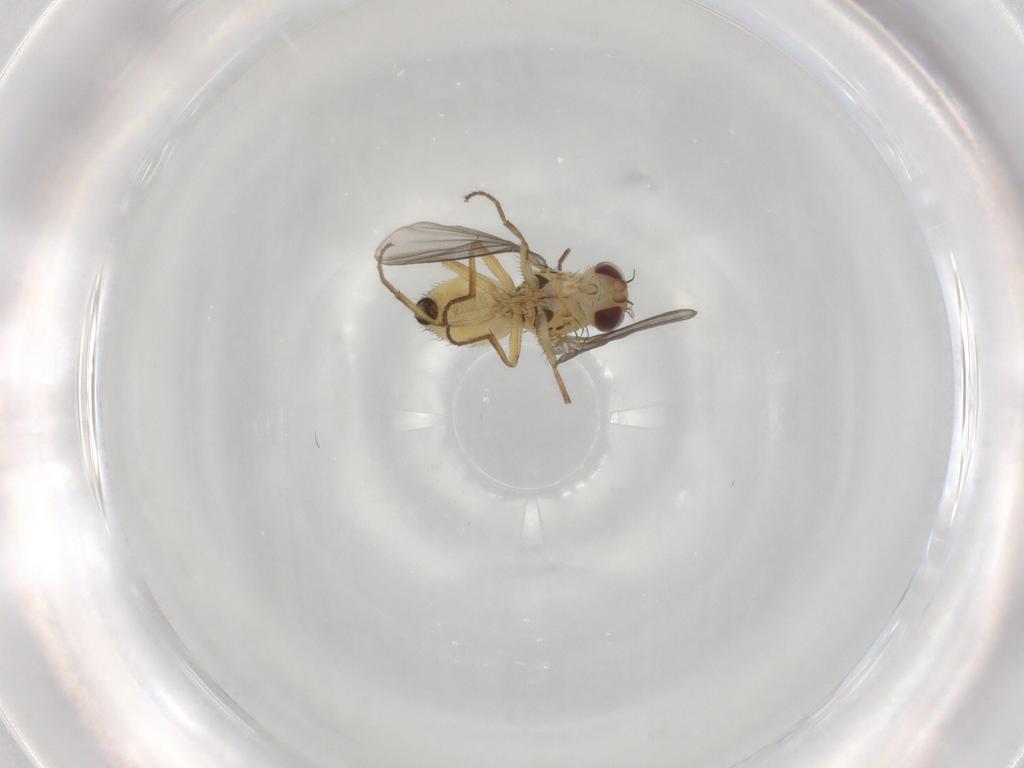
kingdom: Animalia
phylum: Arthropoda
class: Insecta
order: Diptera
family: Agromyzidae
